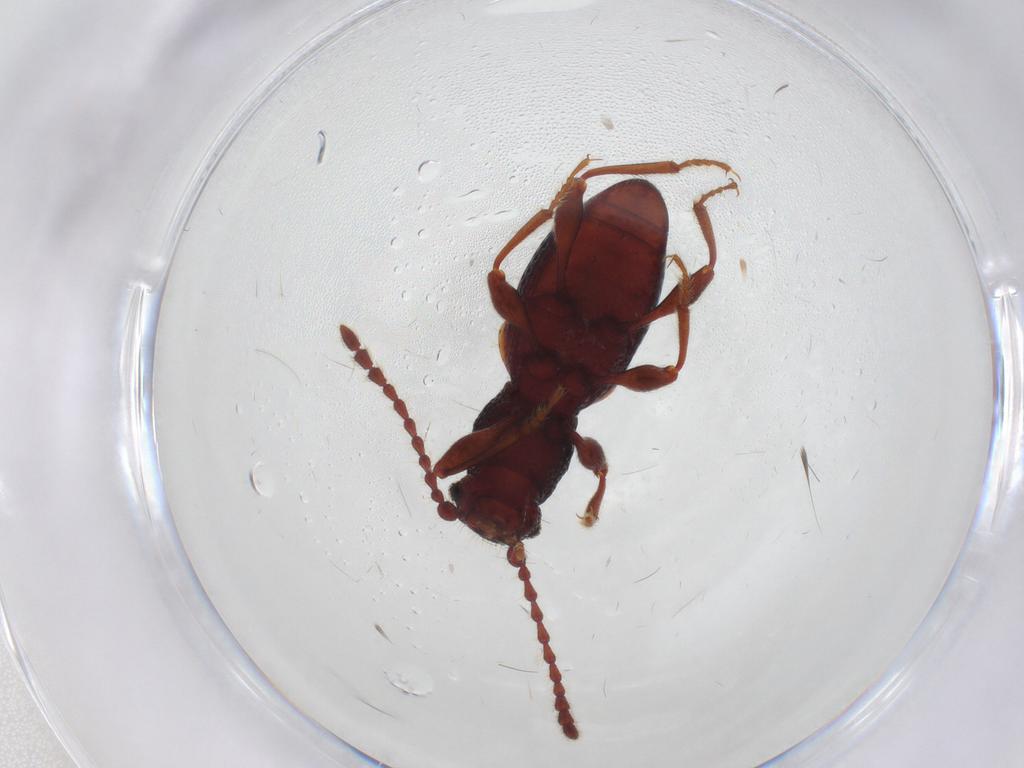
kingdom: Animalia
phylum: Arthropoda
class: Insecta
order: Coleoptera
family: Ptinidae
